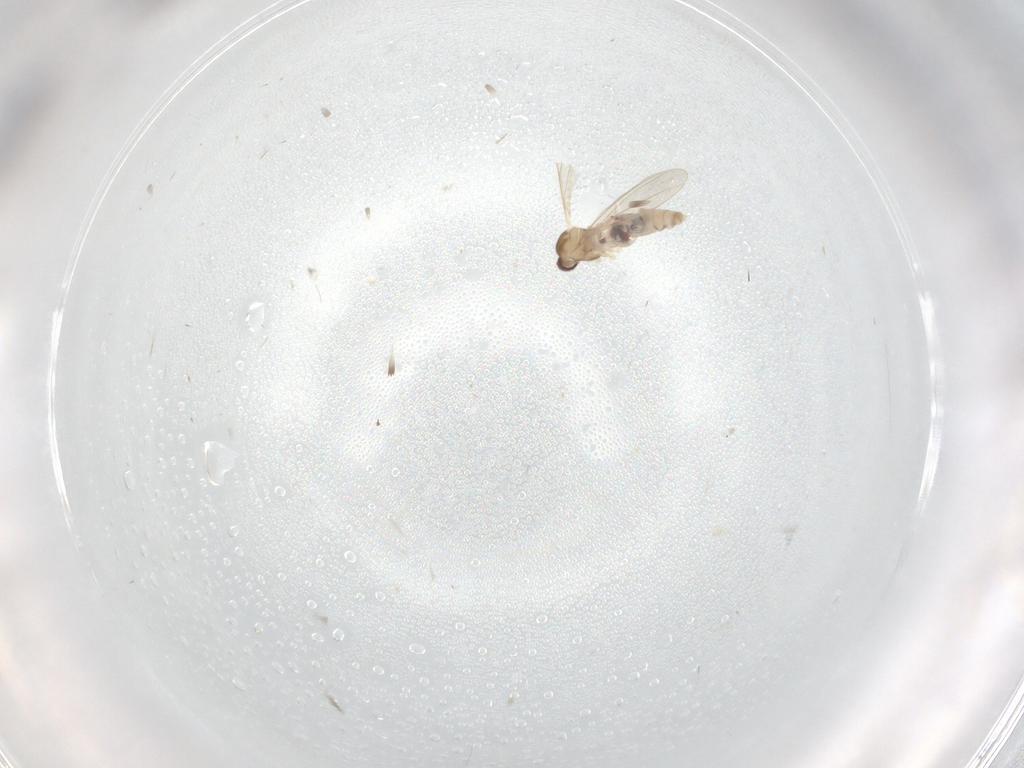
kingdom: Animalia
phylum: Arthropoda
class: Insecta
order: Diptera
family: Cecidomyiidae
